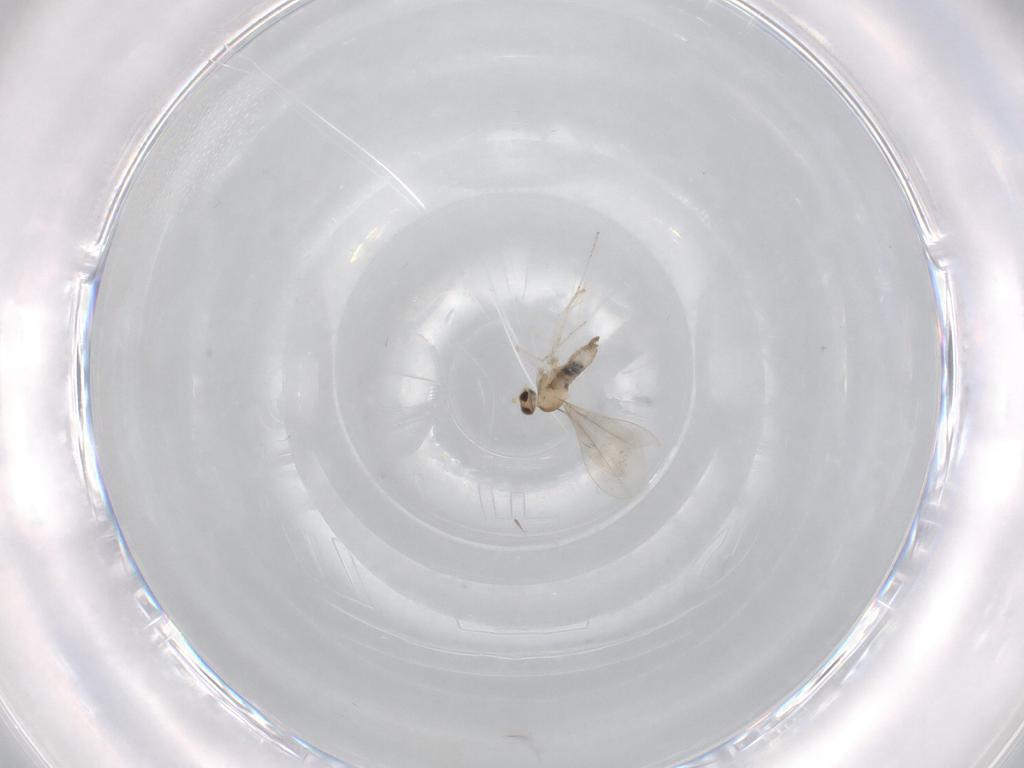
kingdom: Animalia
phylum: Arthropoda
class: Insecta
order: Diptera
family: Cecidomyiidae
